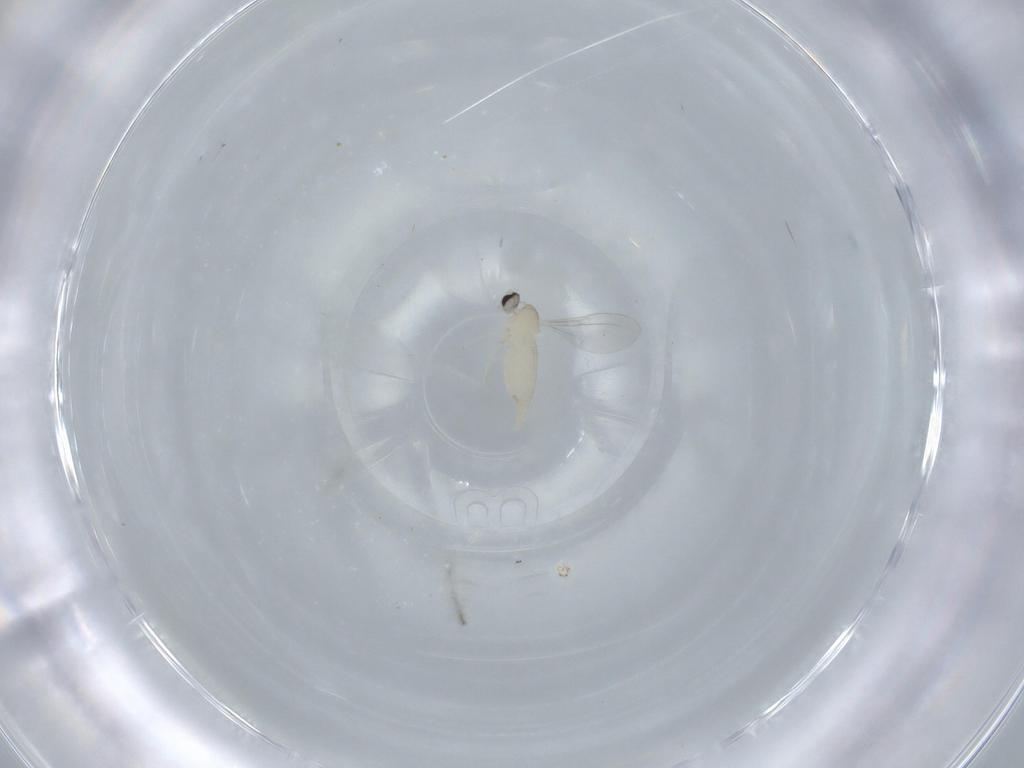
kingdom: Animalia
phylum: Arthropoda
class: Insecta
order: Diptera
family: Cecidomyiidae
